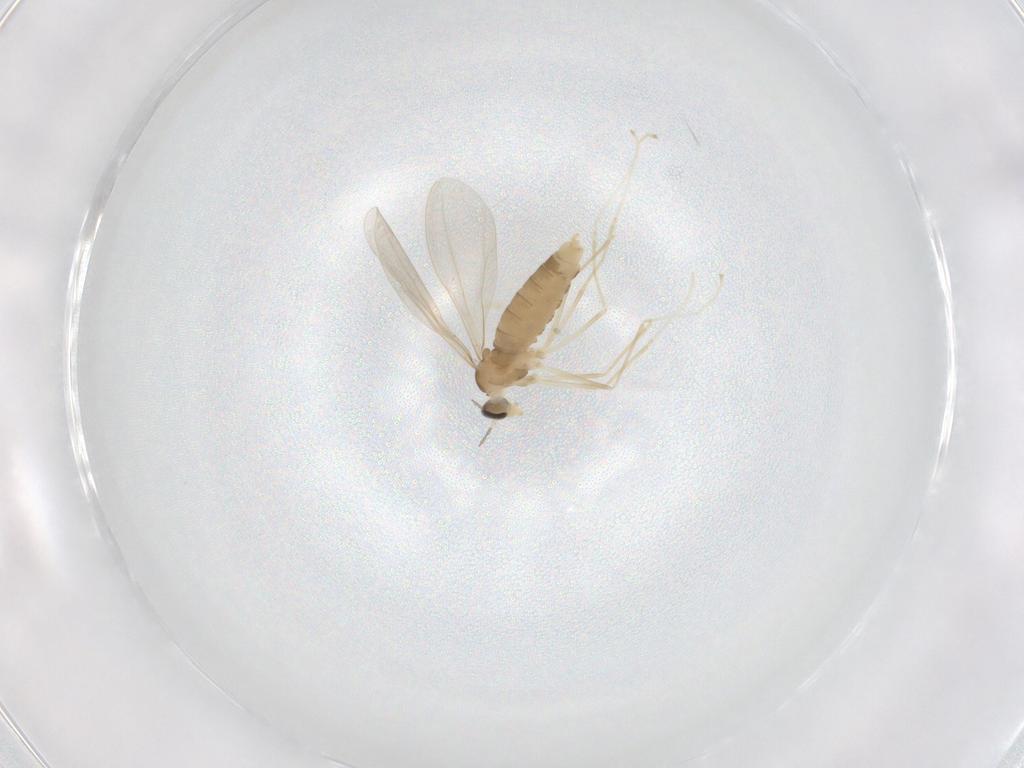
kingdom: Animalia
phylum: Arthropoda
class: Insecta
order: Diptera
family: Cecidomyiidae
